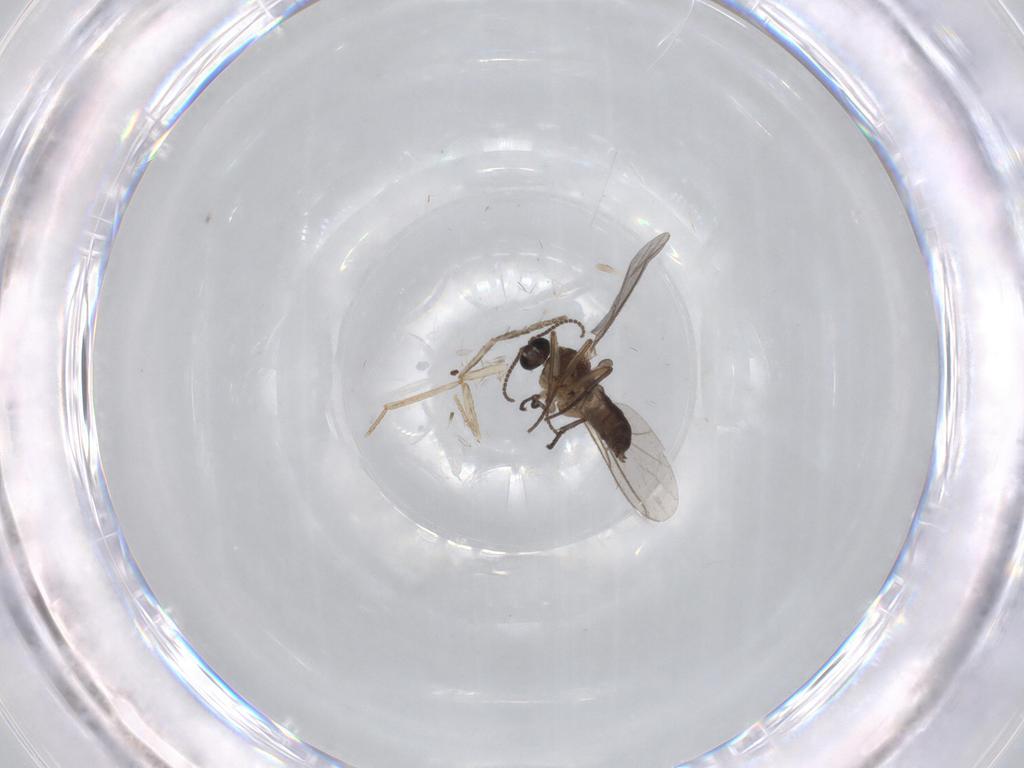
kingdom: Animalia
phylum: Arthropoda
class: Insecta
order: Diptera
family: Sciaridae
